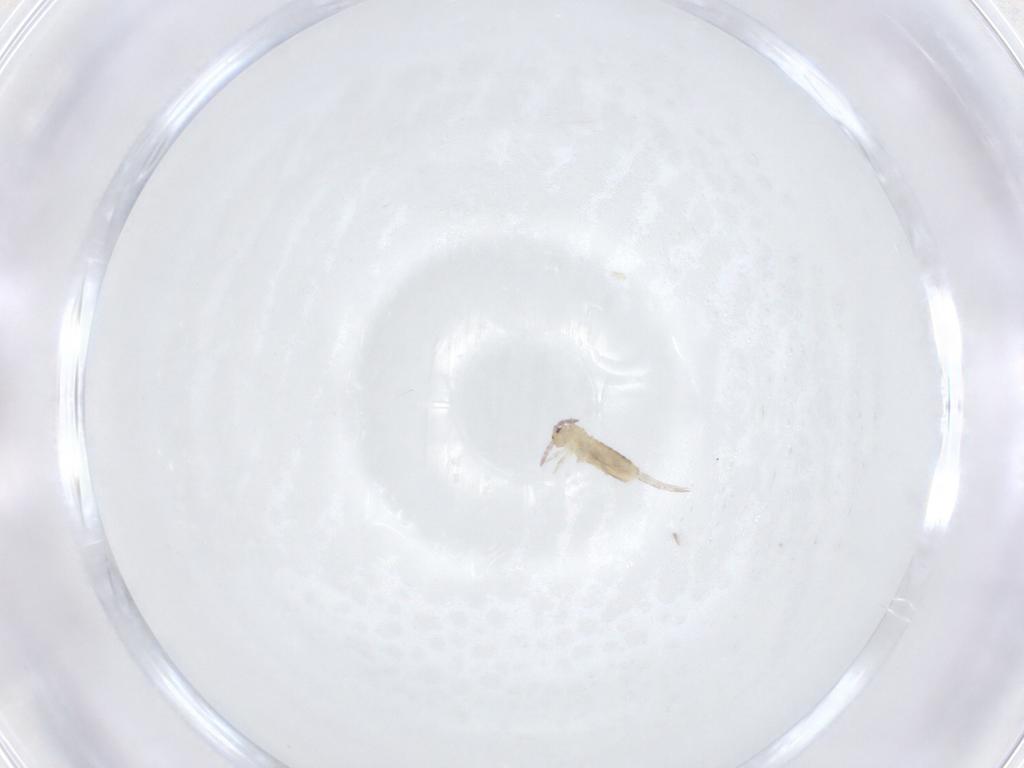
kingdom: Animalia
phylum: Arthropoda
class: Collembola
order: Entomobryomorpha
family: Entomobryidae
